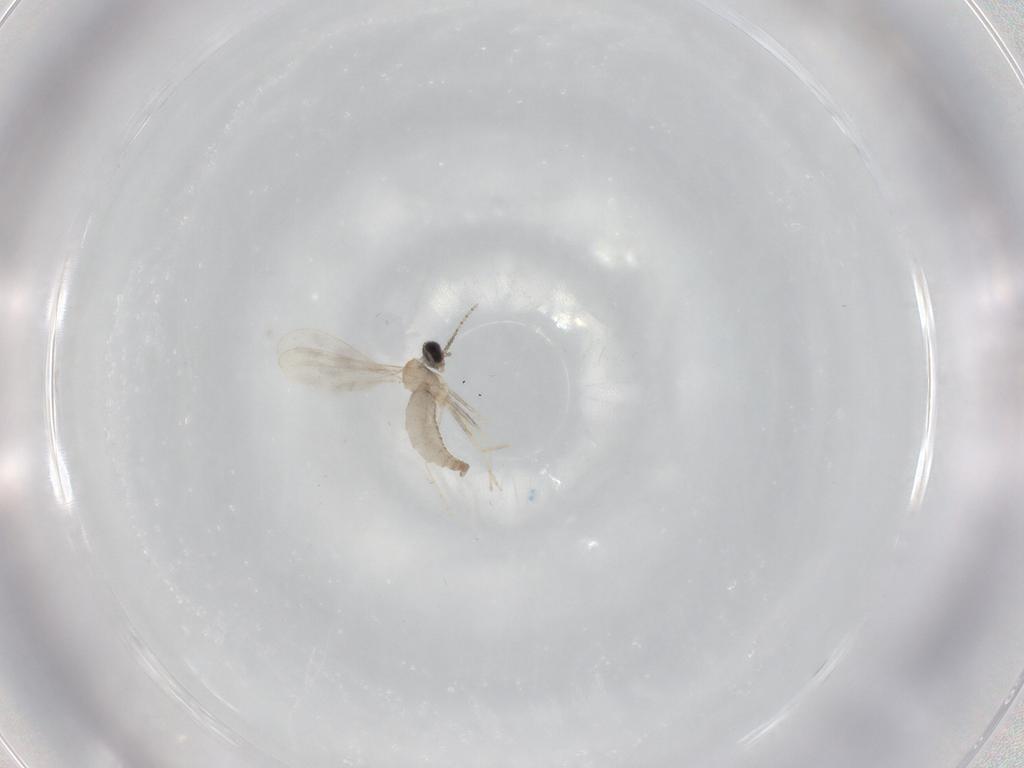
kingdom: Animalia
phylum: Arthropoda
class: Insecta
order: Diptera
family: Cecidomyiidae
